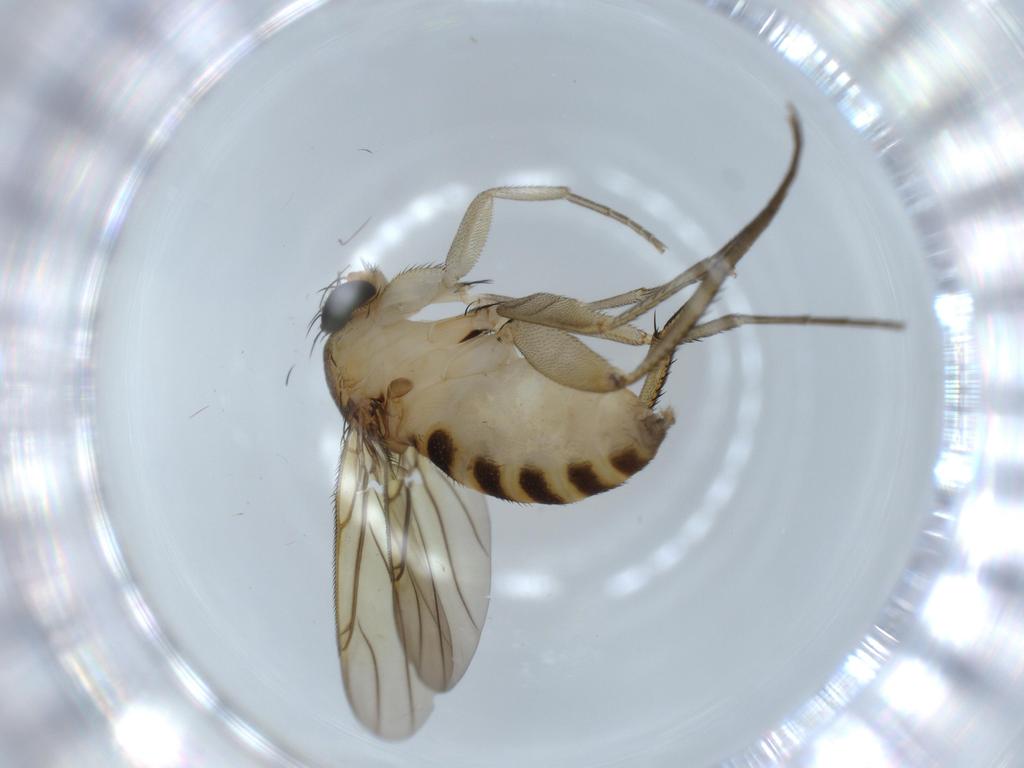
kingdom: Animalia
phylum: Arthropoda
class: Insecta
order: Diptera
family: Phoridae
